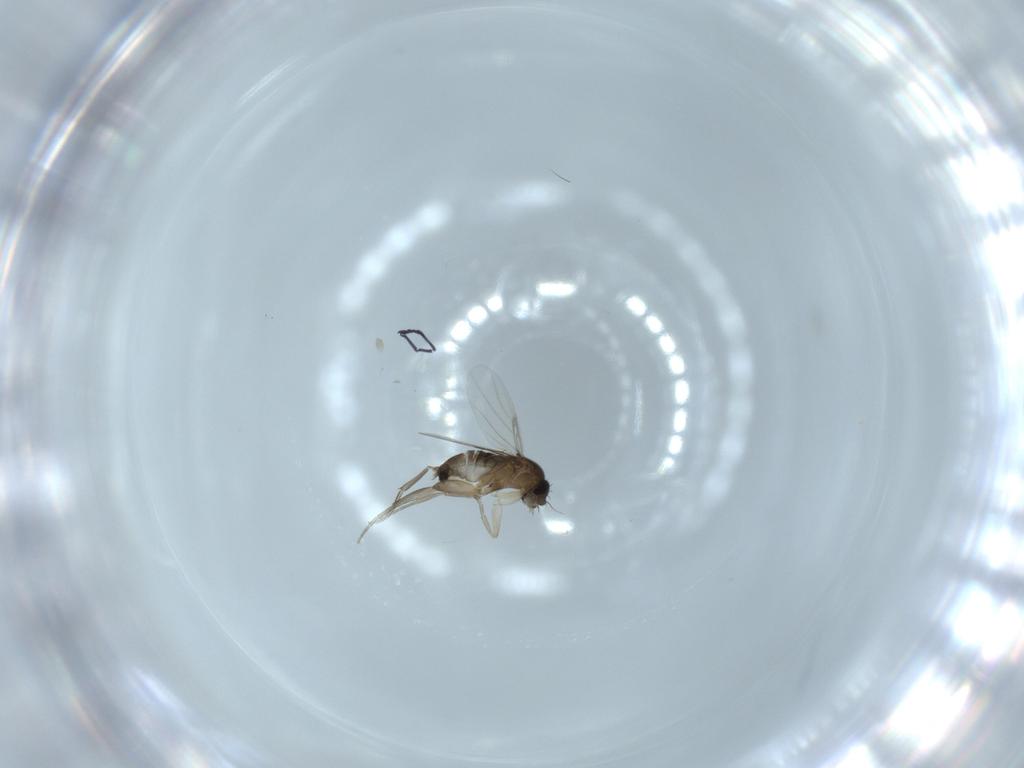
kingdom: Animalia
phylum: Arthropoda
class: Insecta
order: Diptera
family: Phoridae
